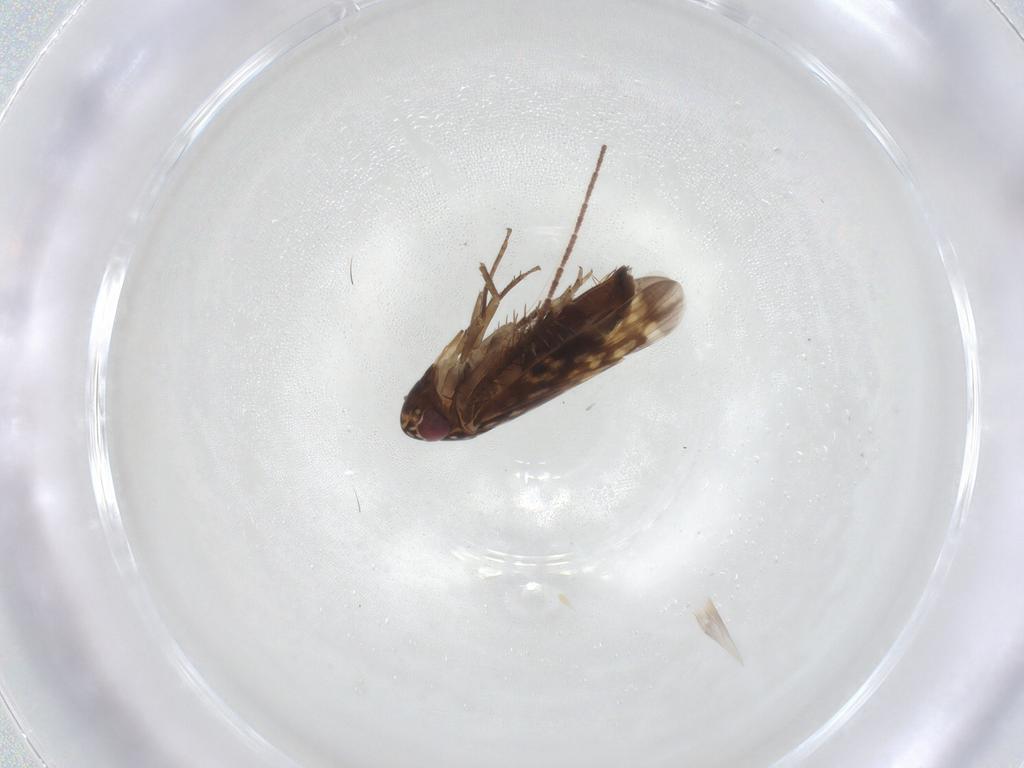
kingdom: Animalia
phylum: Arthropoda
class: Insecta
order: Hemiptera
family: Cicadellidae
